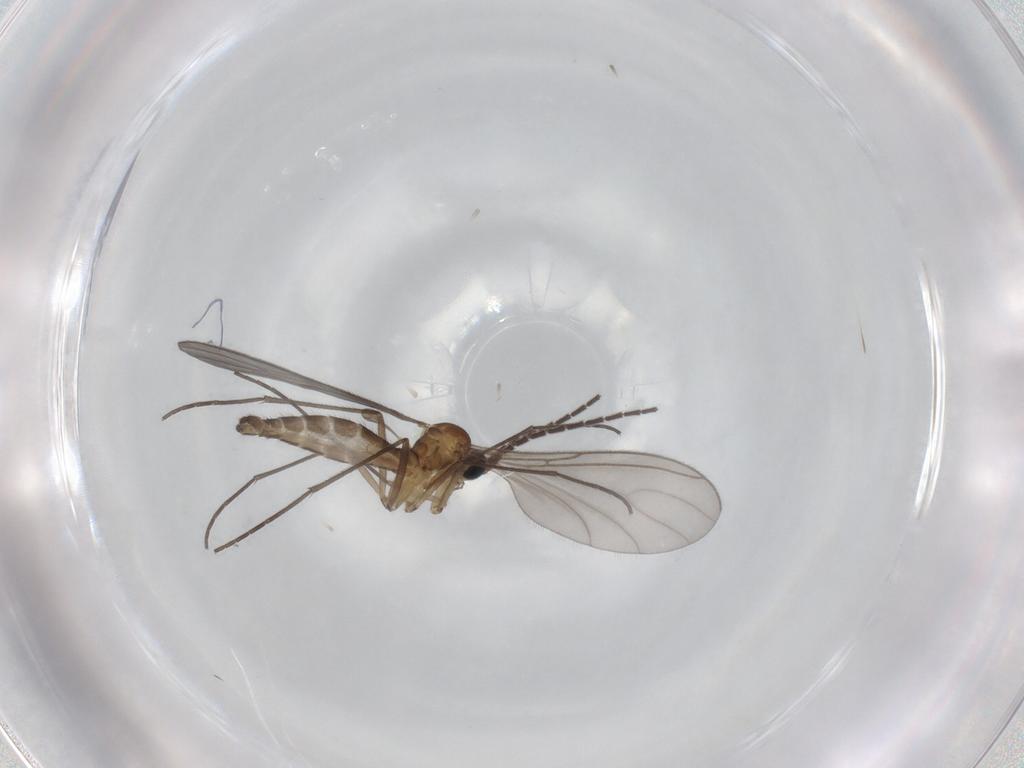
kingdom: Animalia
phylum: Arthropoda
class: Insecta
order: Diptera
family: Sciaridae
